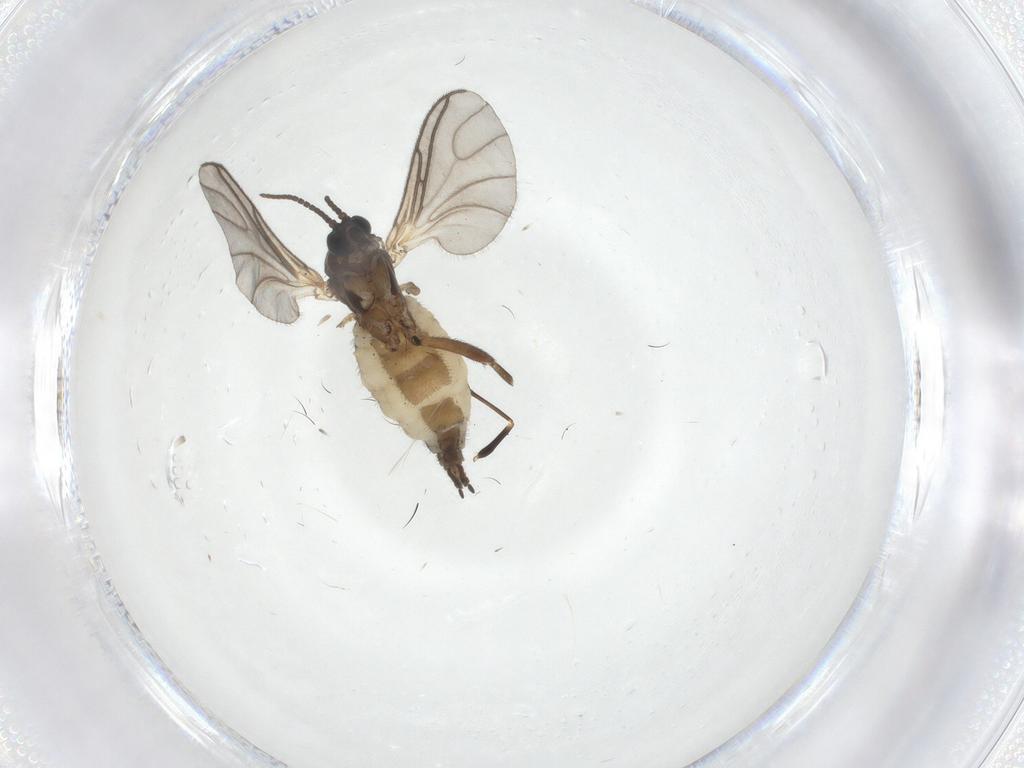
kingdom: Animalia
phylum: Arthropoda
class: Insecta
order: Diptera
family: Sciaridae
